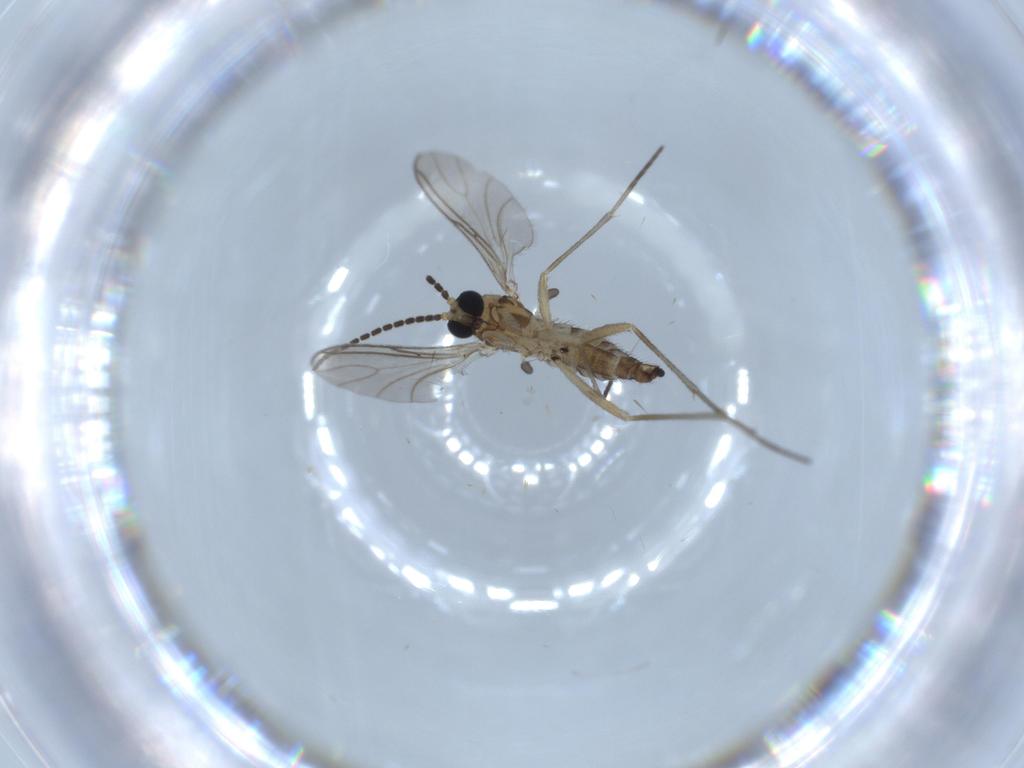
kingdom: Animalia
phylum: Arthropoda
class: Insecta
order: Diptera
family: Sciaridae
